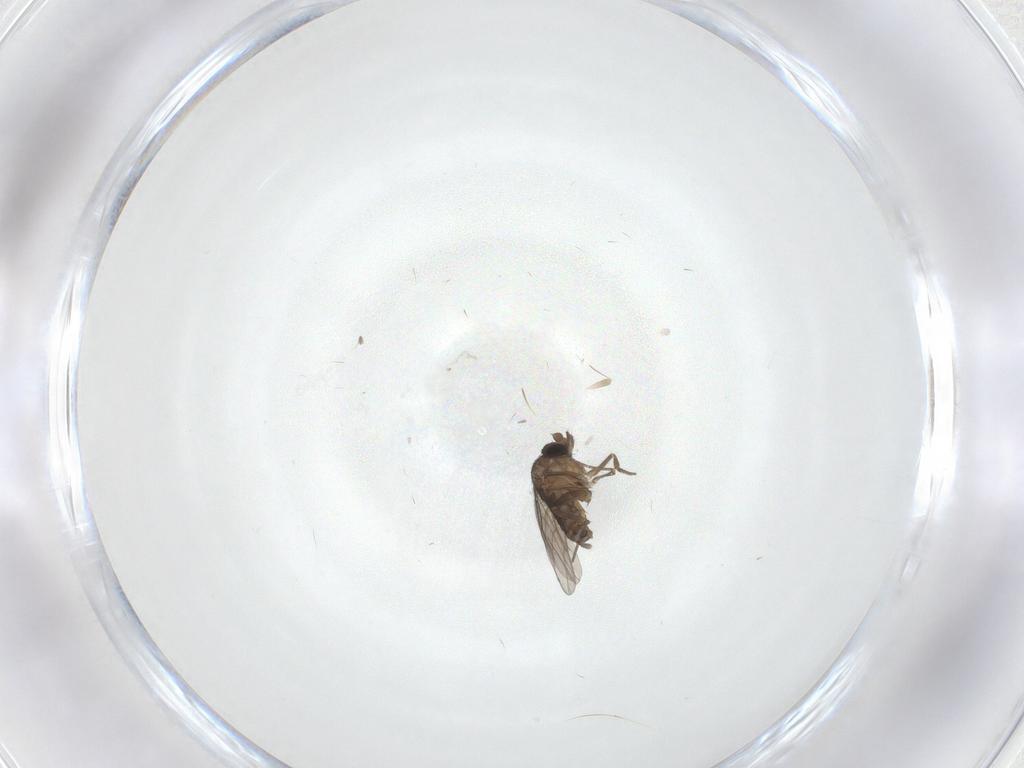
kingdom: Animalia
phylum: Arthropoda
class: Insecta
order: Diptera
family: Phoridae
